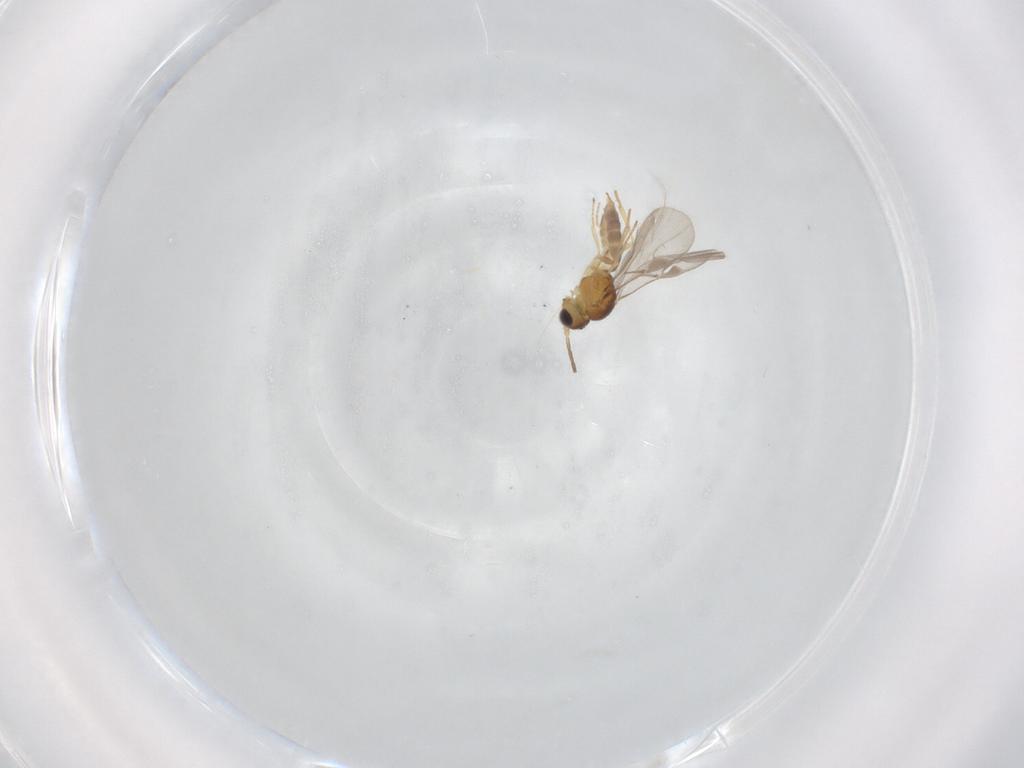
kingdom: Animalia
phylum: Arthropoda
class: Insecta
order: Hymenoptera
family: Braconidae
